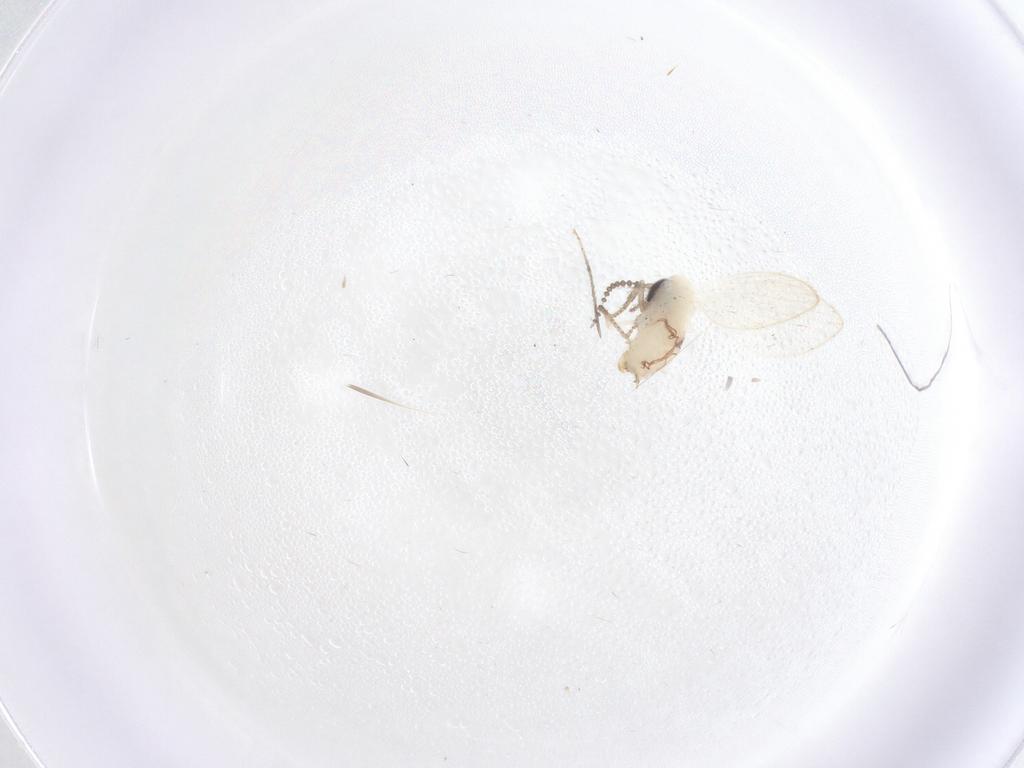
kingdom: Animalia
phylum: Arthropoda
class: Insecta
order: Diptera
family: Psychodidae
